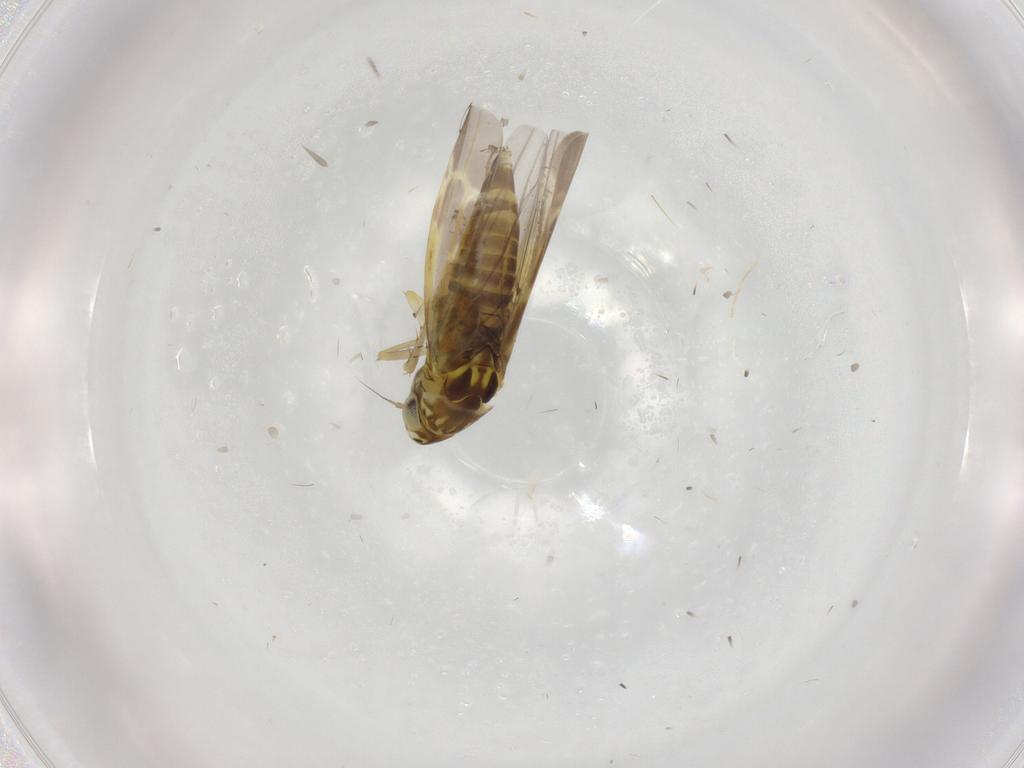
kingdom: Animalia
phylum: Arthropoda
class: Insecta
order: Hemiptera
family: Cicadellidae
